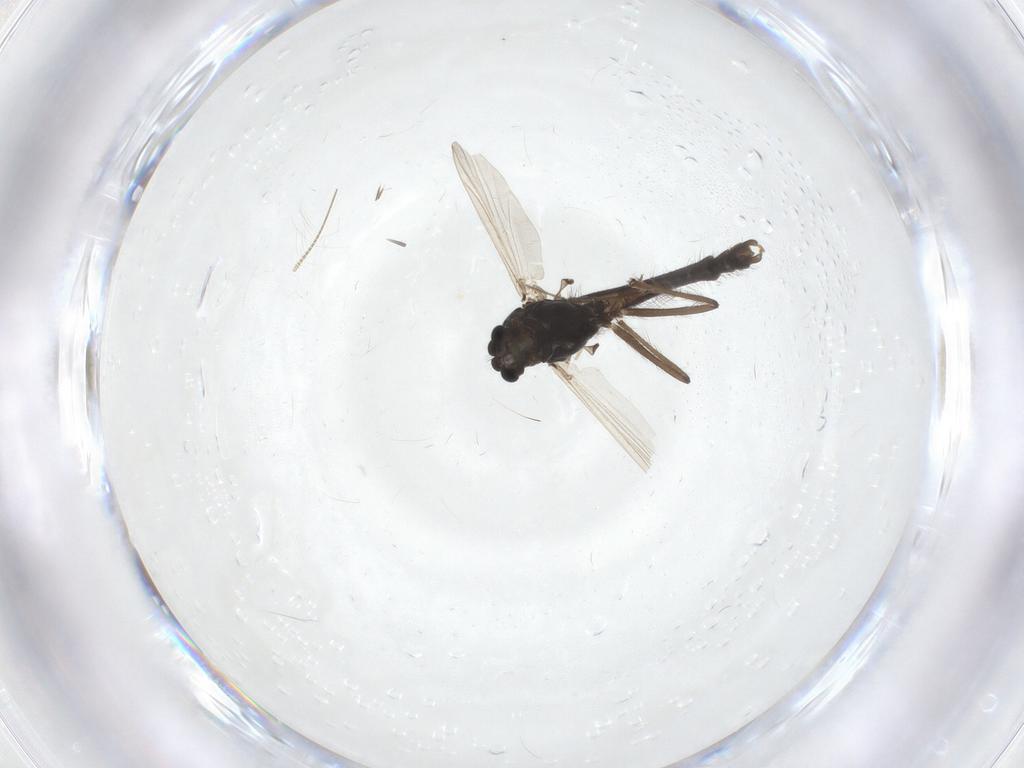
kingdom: Animalia
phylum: Arthropoda
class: Insecta
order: Diptera
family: Chironomidae
